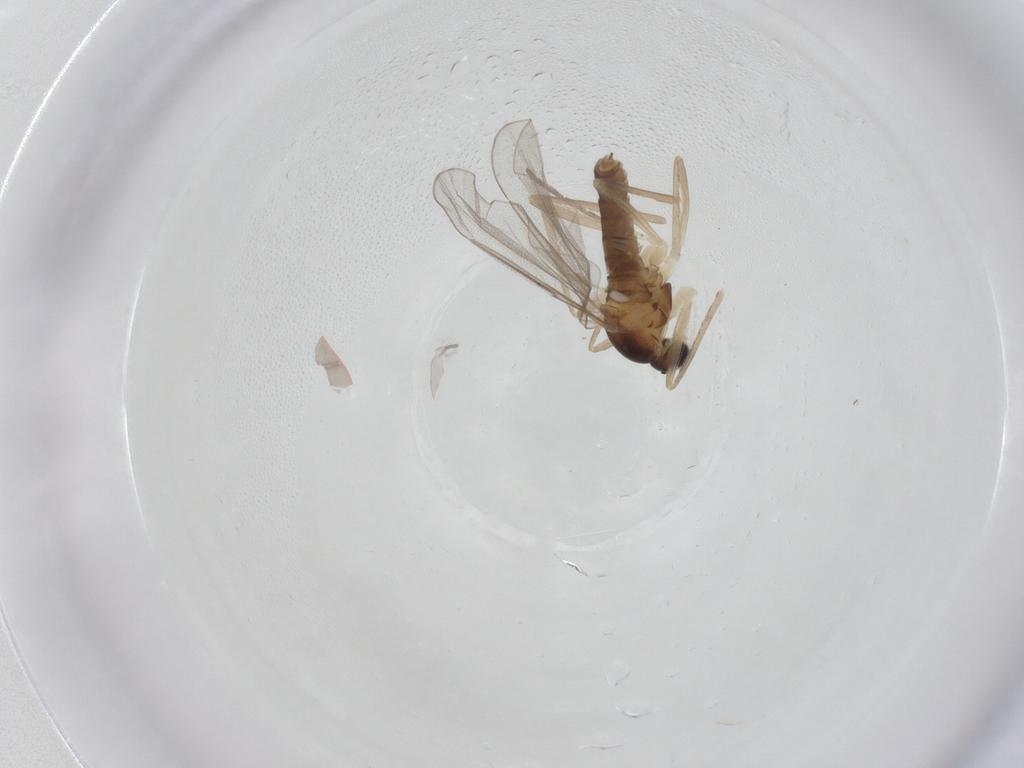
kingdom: Animalia
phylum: Arthropoda
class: Insecta
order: Diptera
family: Cecidomyiidae
